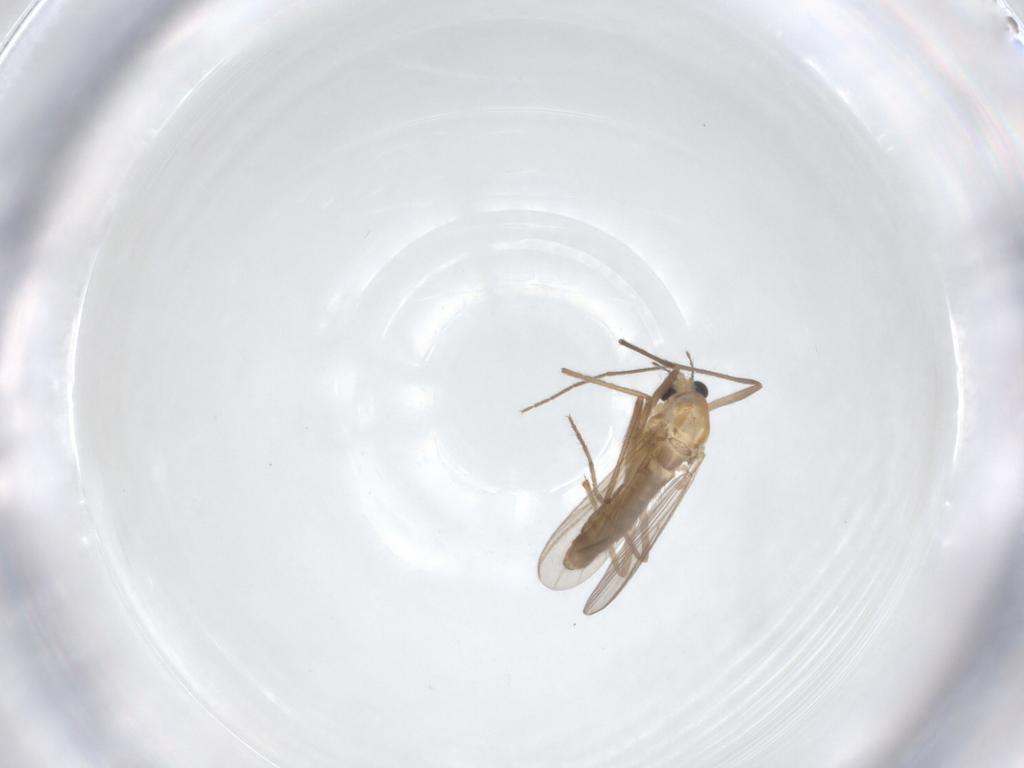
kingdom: Animalia
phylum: Arthropoda
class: Insecta
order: Diptera
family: Chironomidae
